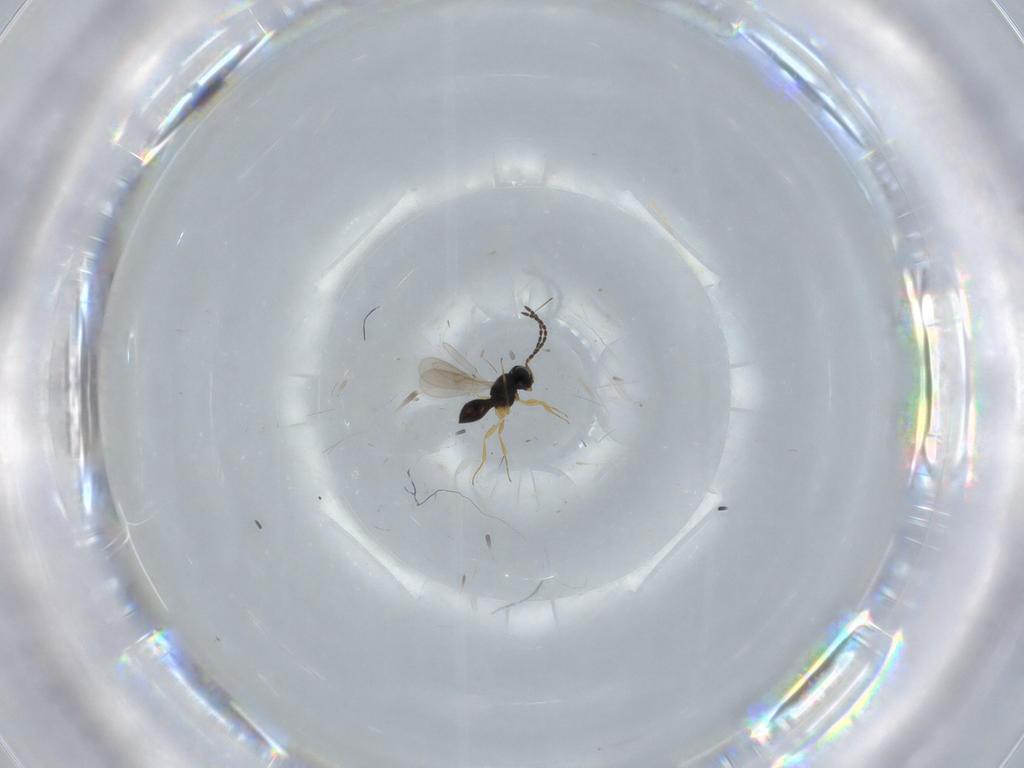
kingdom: Animalia
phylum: Arthropoda
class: Insecta
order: Hymenoptera
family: Scelionidae
